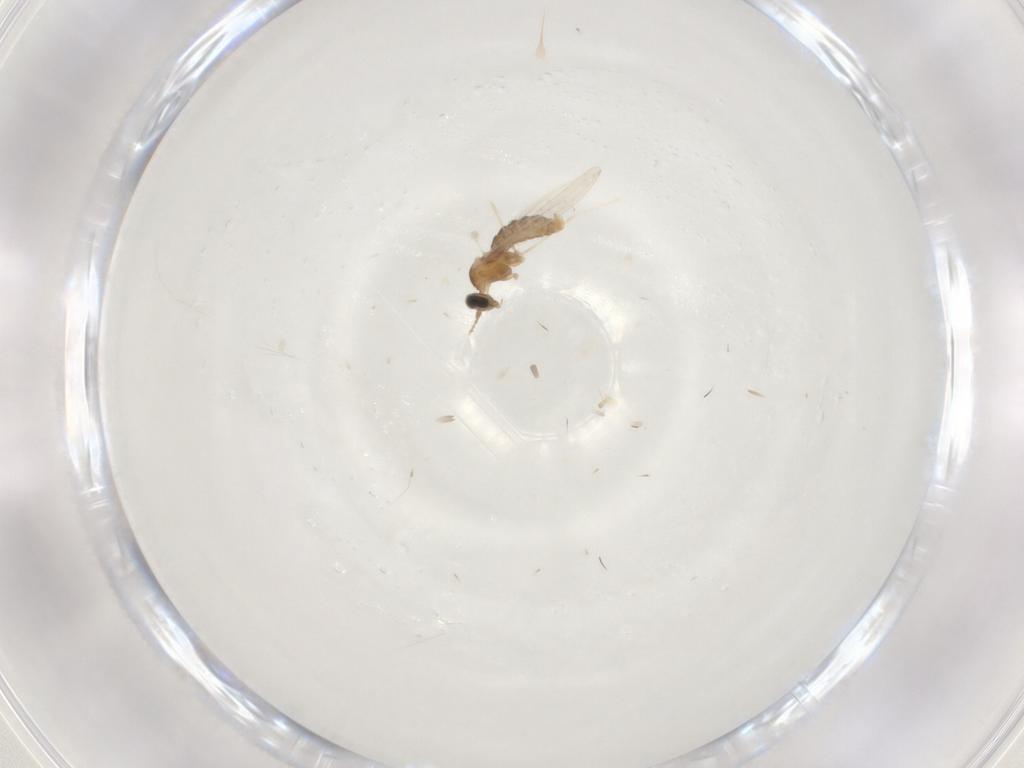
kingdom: Animalia
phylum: Arthropoda
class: Insecta
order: Diptera
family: Cecidomyiidae
